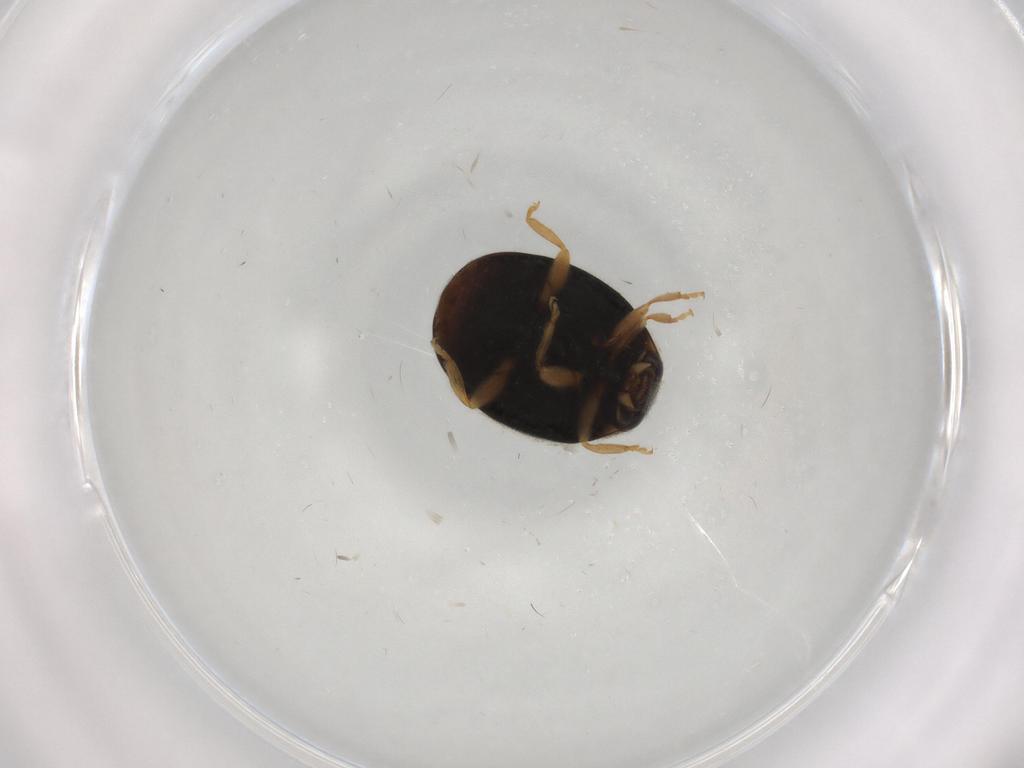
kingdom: Animalia
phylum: Arthropoda
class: Insecta
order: Coleoptera
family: Coccinellidae
